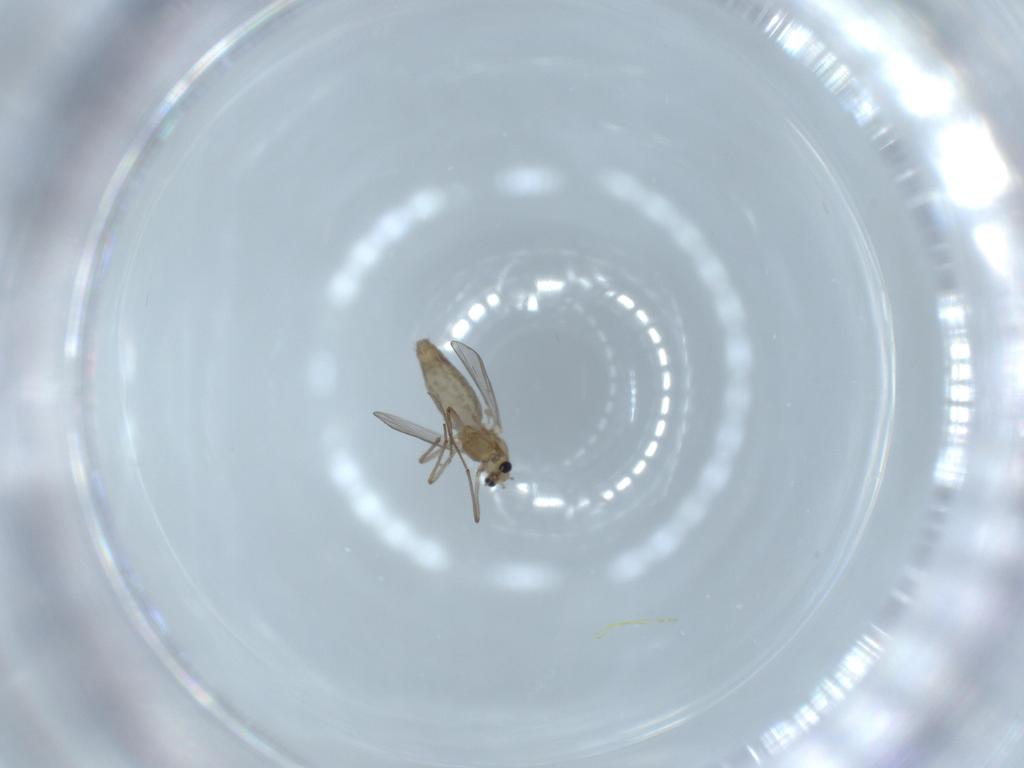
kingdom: Animalia
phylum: Arthropoda
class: Insecta
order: Diptera
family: Chironomidae
